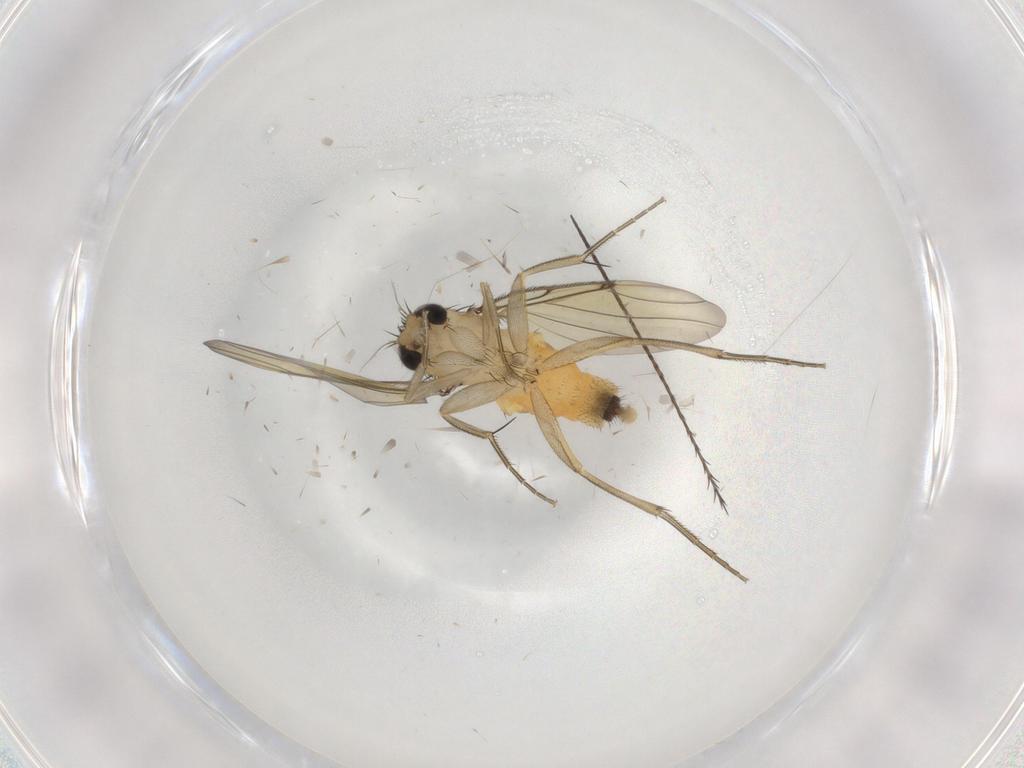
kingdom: Animalia
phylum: Arthropoda
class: Insecta
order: Diptera
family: Phoridae
